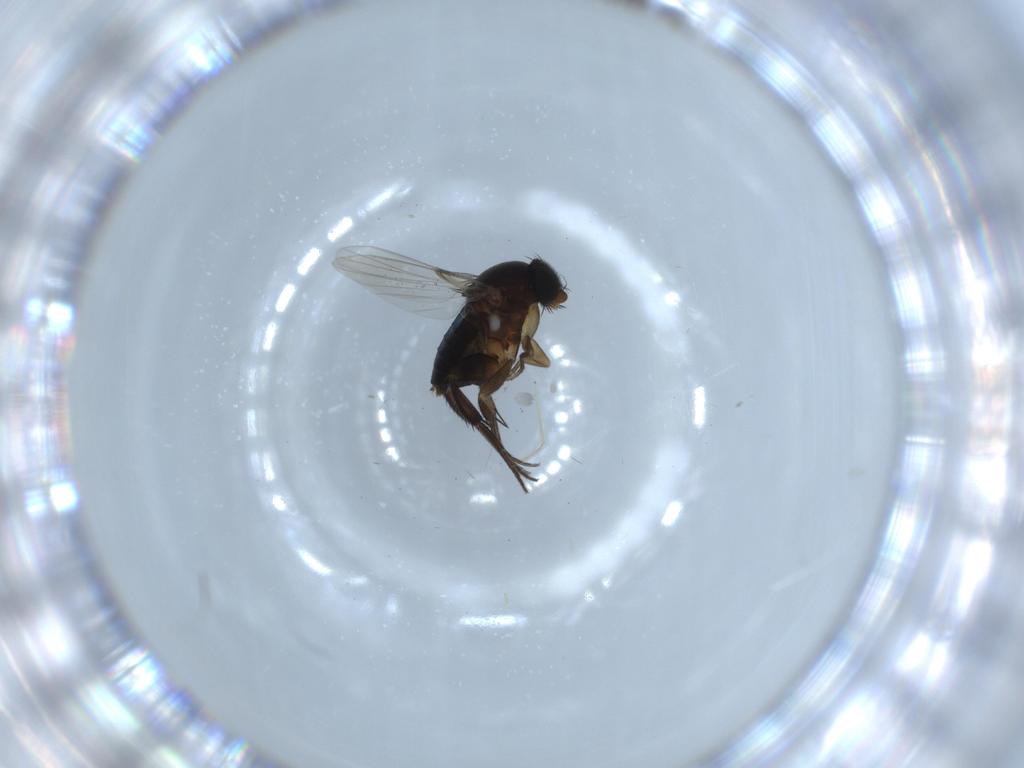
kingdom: Animalia
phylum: Arthropoda
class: Insecta
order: Diptera
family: Phoridae
